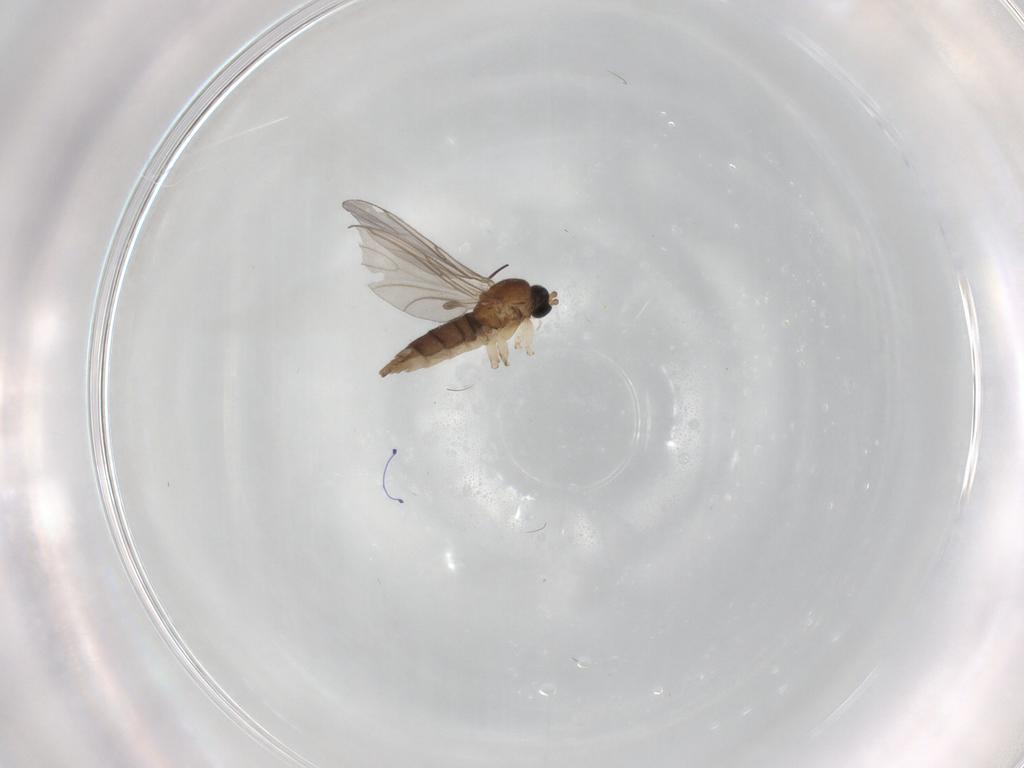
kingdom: Animalia
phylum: Arthropoda
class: Insecta
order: Diptera
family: Sciaridae
